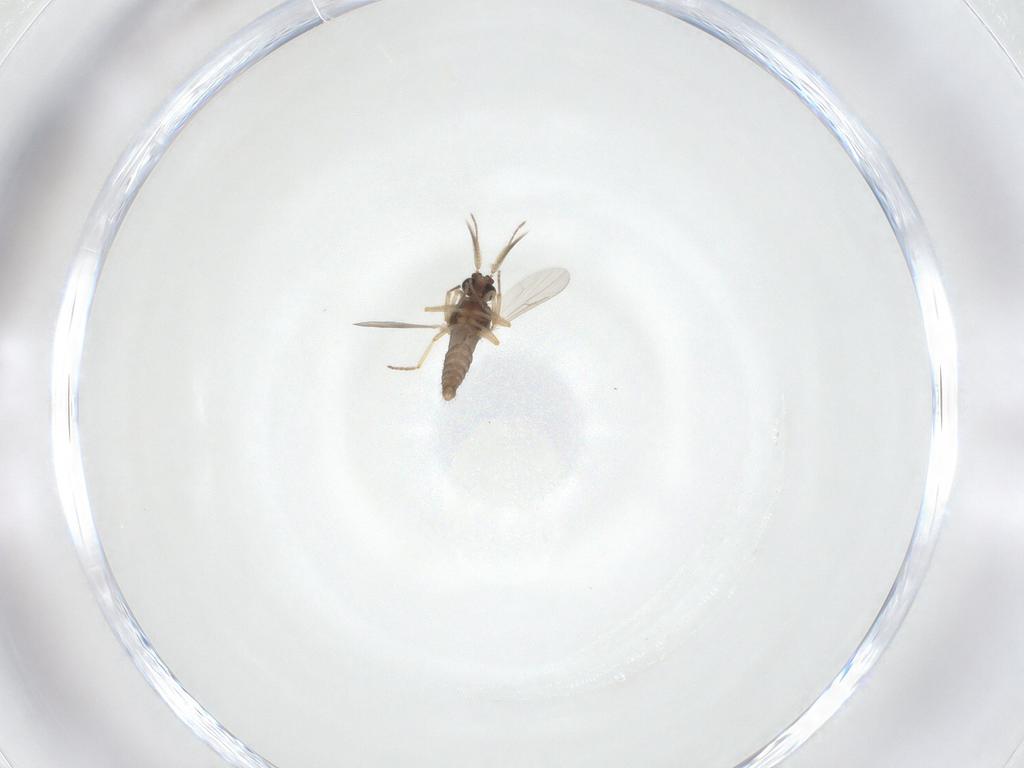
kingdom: Animalia
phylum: Arthropoda
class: Insecta
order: Diptera
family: Ceratopogonidae
